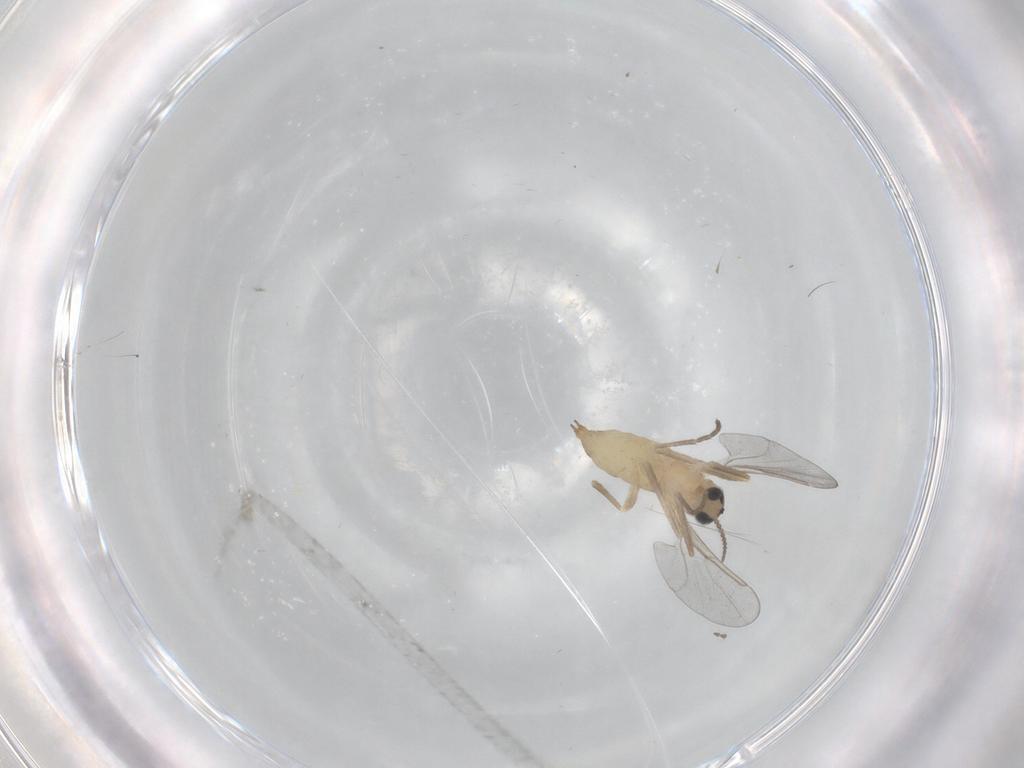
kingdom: Animalia
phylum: Arthropoda
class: Insecta
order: Diptera
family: Cecidomyiidae
